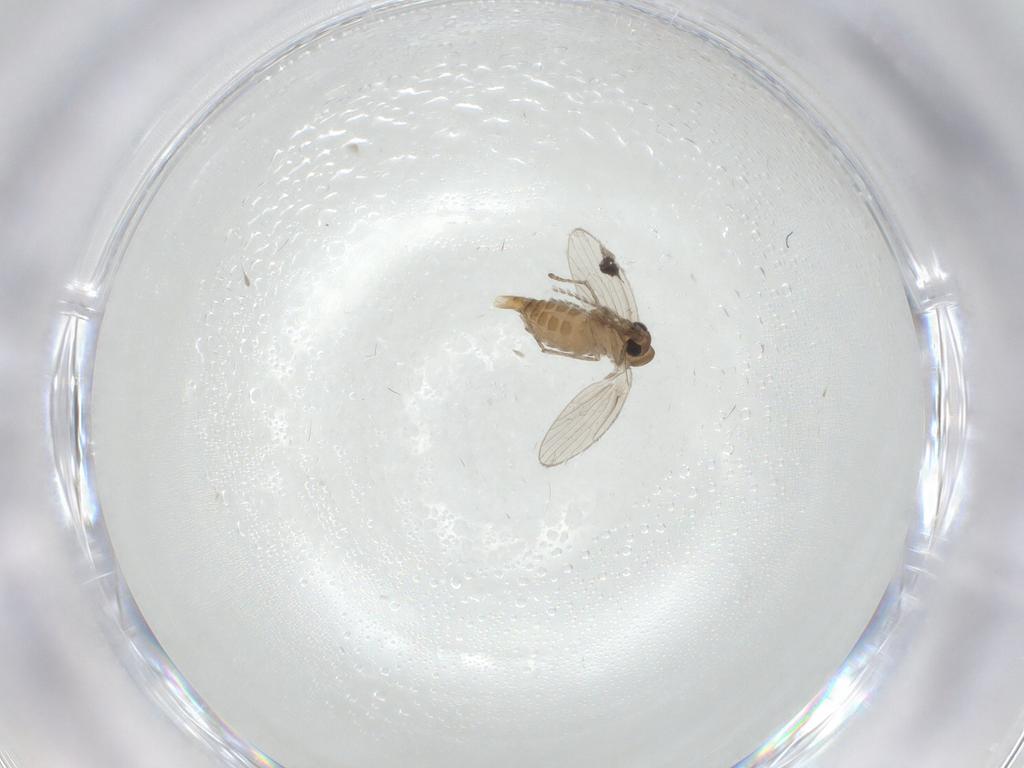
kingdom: Animalia
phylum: Arthropoda
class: Insecta
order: Diptera
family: Psychodidae
